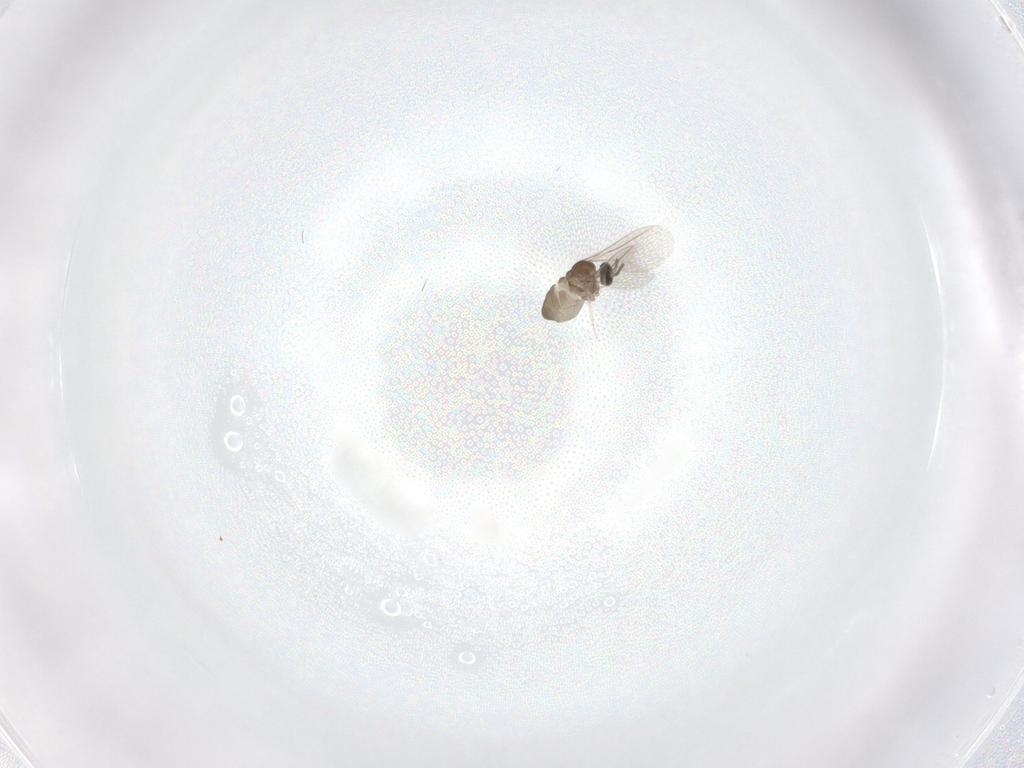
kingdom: Animalia
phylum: Arthropoda
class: Insecta
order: Diptera
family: Cecidomyiidae
